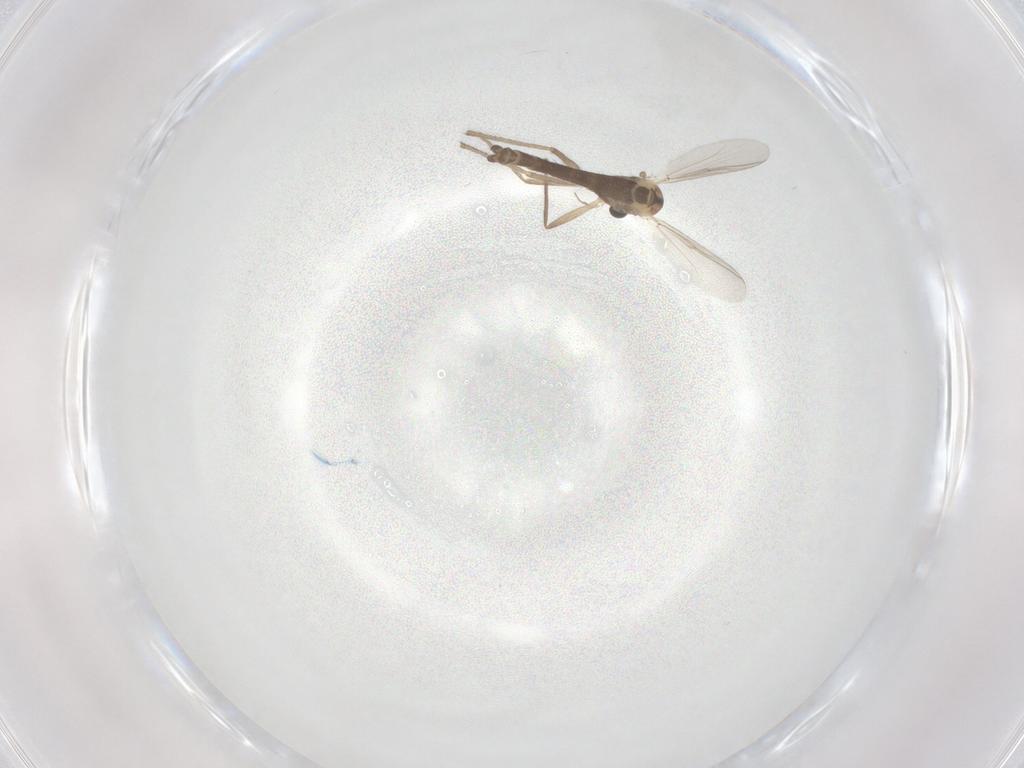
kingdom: Animalia
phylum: Arthropoda
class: Insecta
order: Diptera
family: Chironomidae
